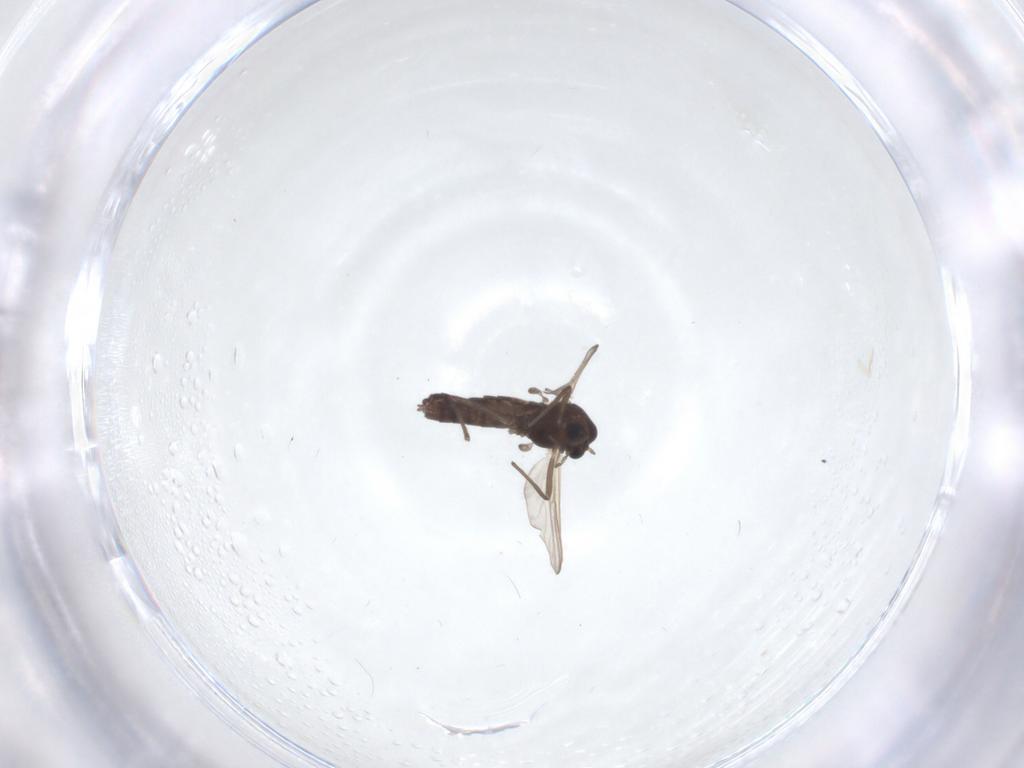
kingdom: Animalia
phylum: Arthropoda
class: Insecta
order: Diptera
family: Chironomidae
